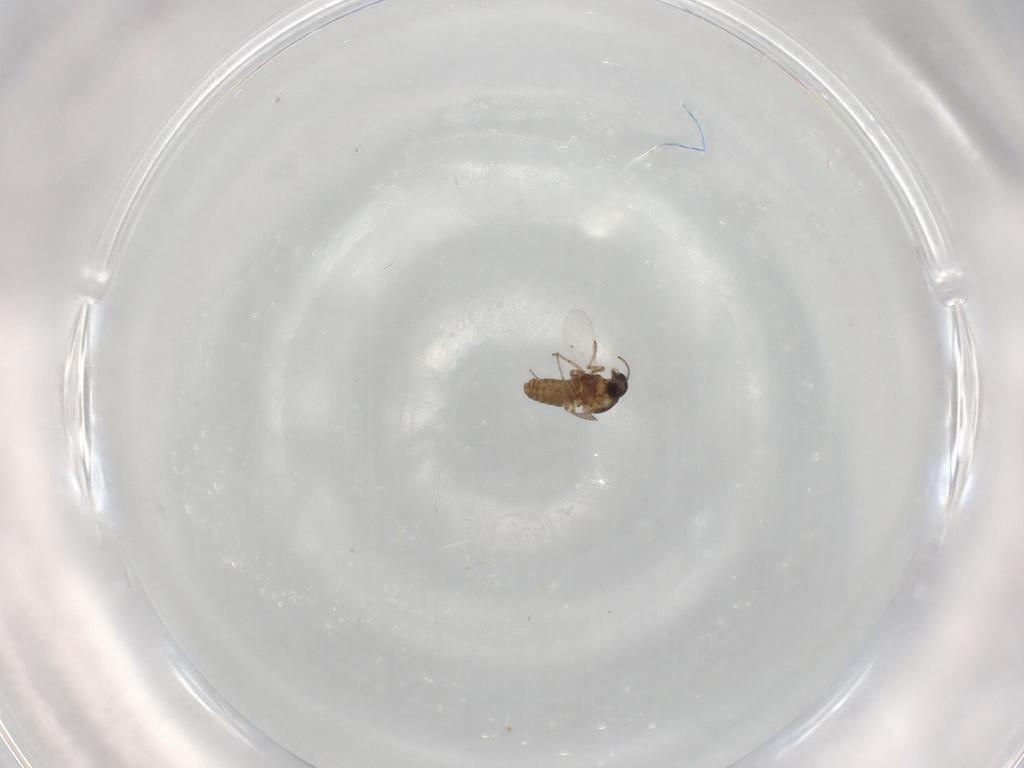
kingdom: Animalia
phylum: Arthropoda
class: Insecta
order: Diptera
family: Ceratopogonidae
